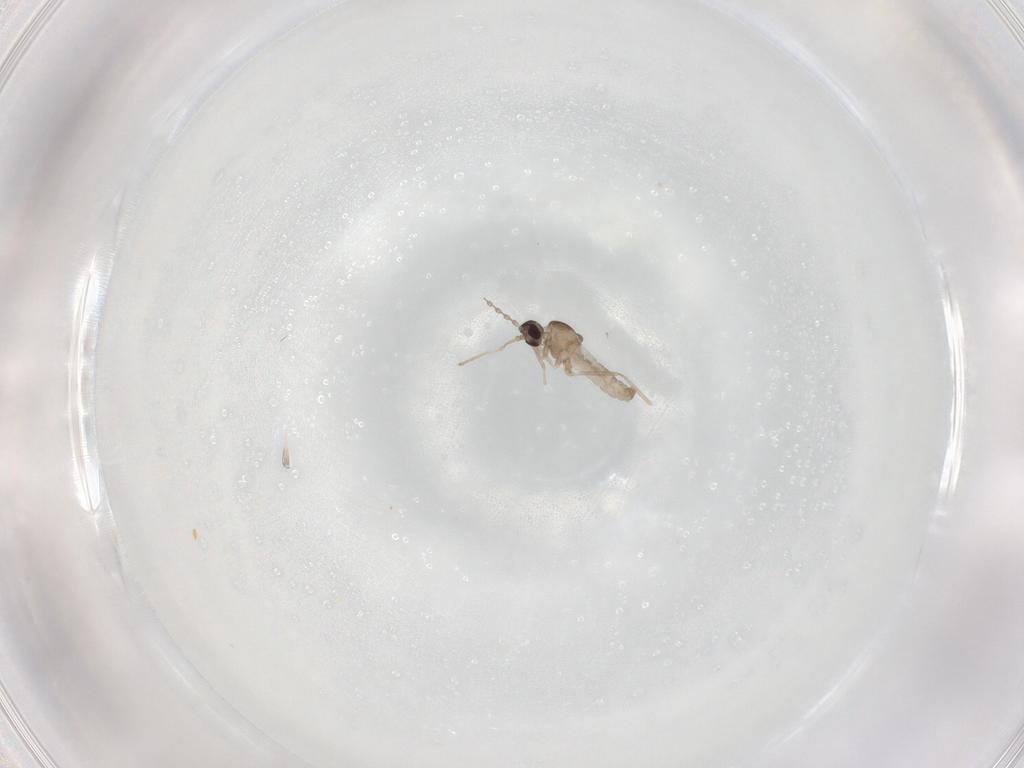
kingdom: Animalia
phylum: Arthropoda
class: Insecta
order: Diptera
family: Cecidomyiidae
